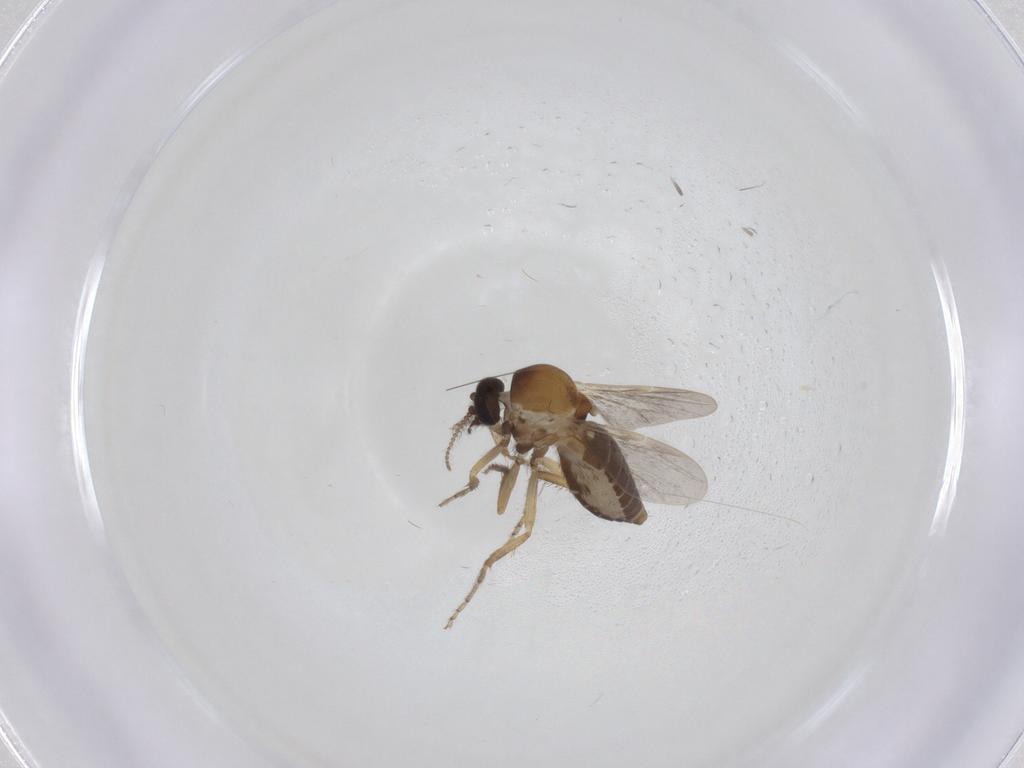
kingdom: Animalia
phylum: Arthropoda
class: Insecta
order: Diptera
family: Ceratopogonidae
